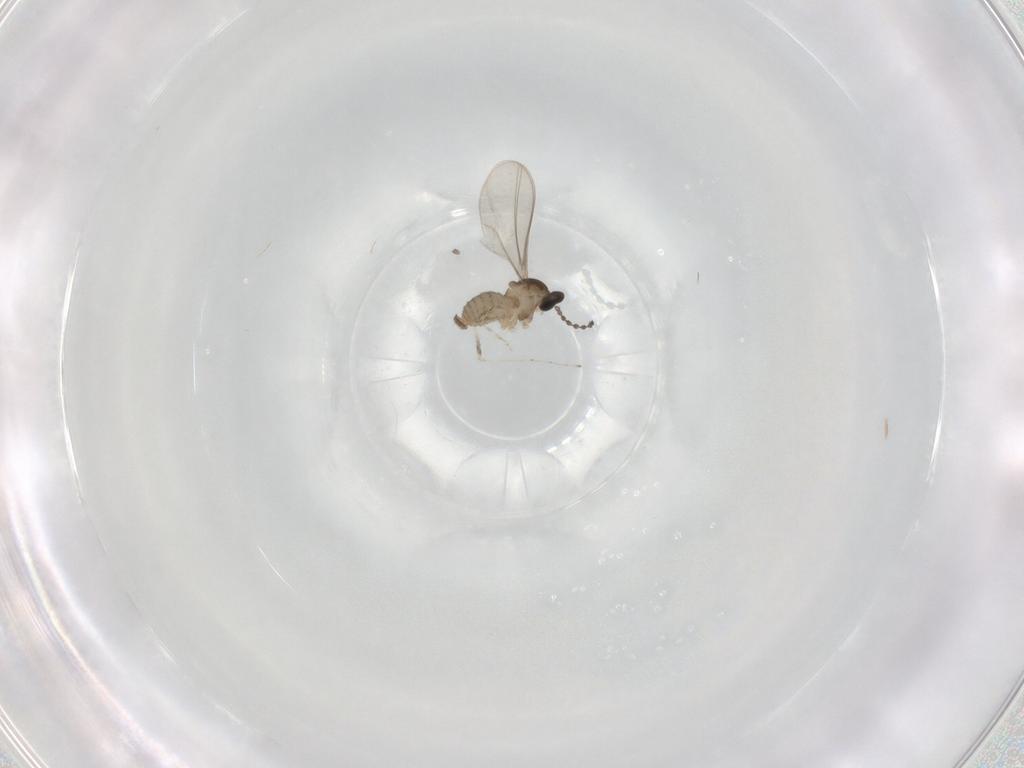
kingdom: Animalia
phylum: Arthropoda
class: Insecta
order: Diptera
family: Cecidomyiidae
